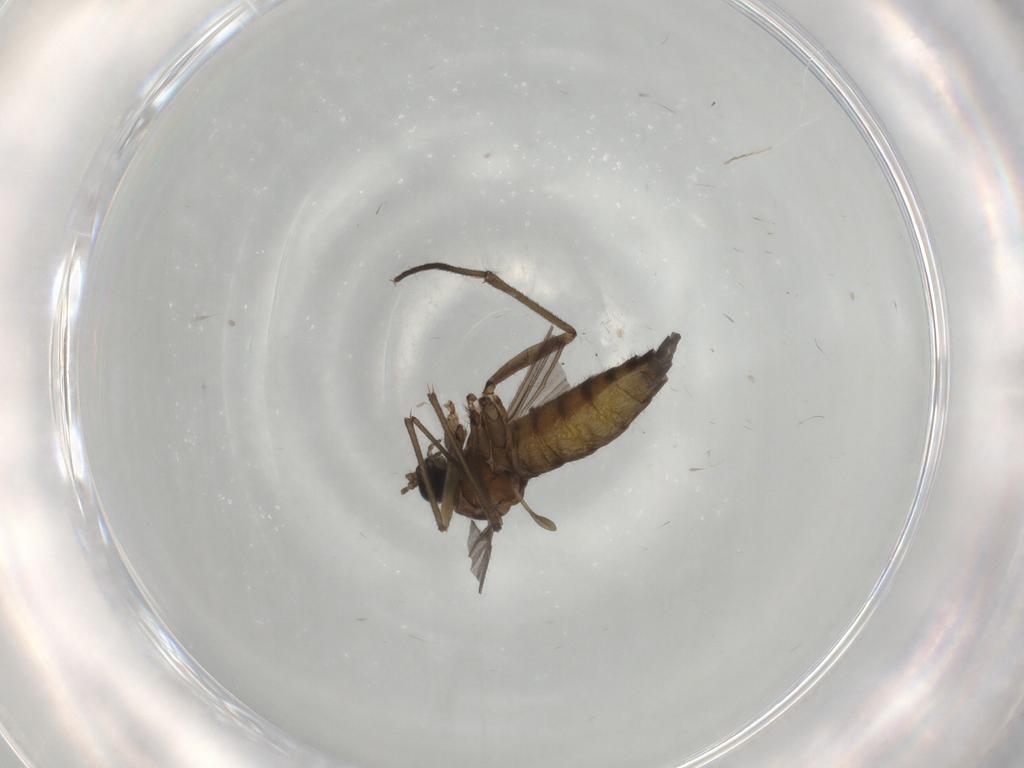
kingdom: Animalia
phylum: Arthropoda
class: Insecta
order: Diptera
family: Sciaridae
